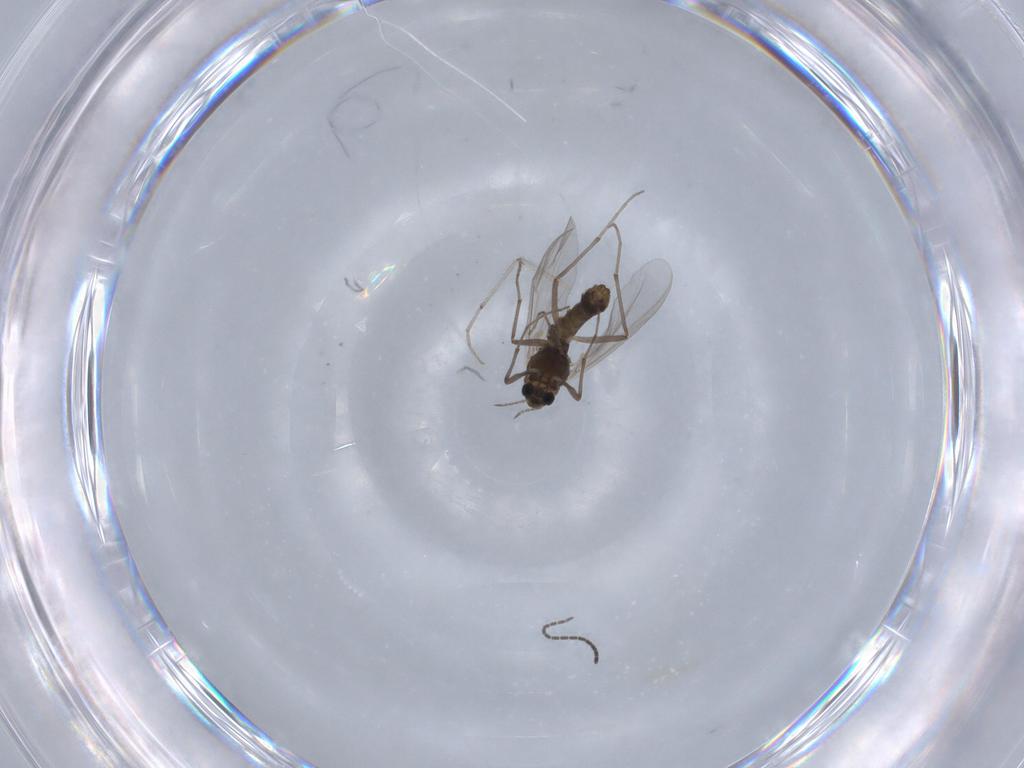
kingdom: Animalia
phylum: Arthropoda
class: Insecta
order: Diptera
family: Chironomidae
